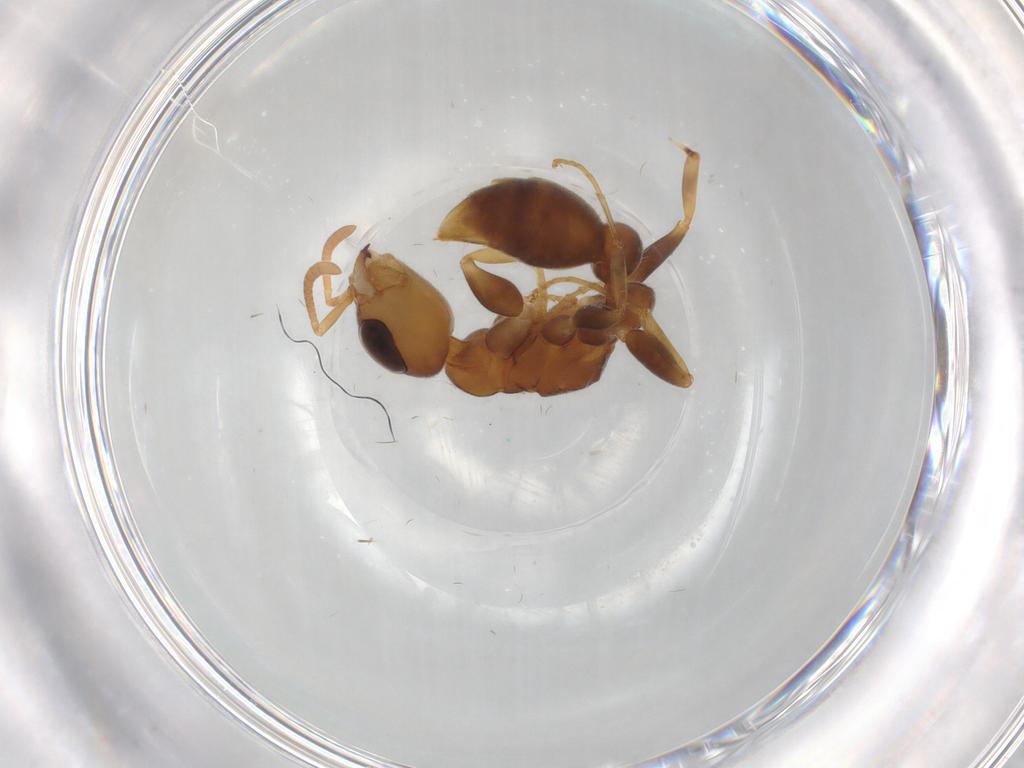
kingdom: Animalia
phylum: Arthropoda
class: Insecta
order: Hymenoptera
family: Formicidae
